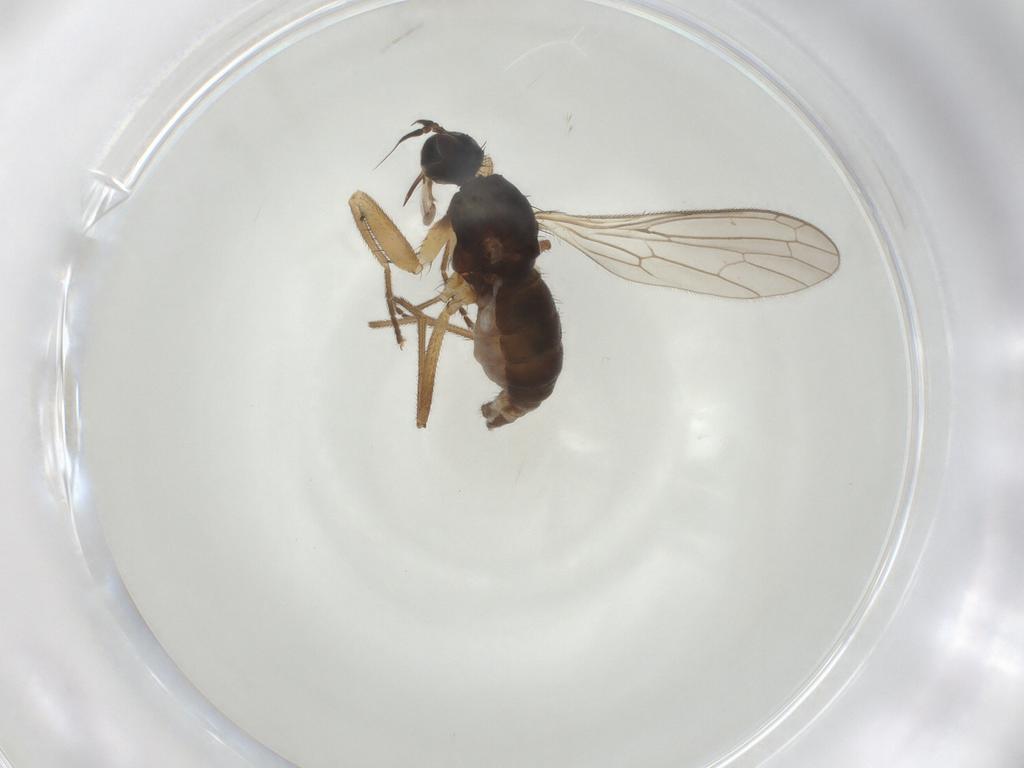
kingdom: Animalia
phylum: Arthropoda
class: Insecta
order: Diptera
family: Empididae
